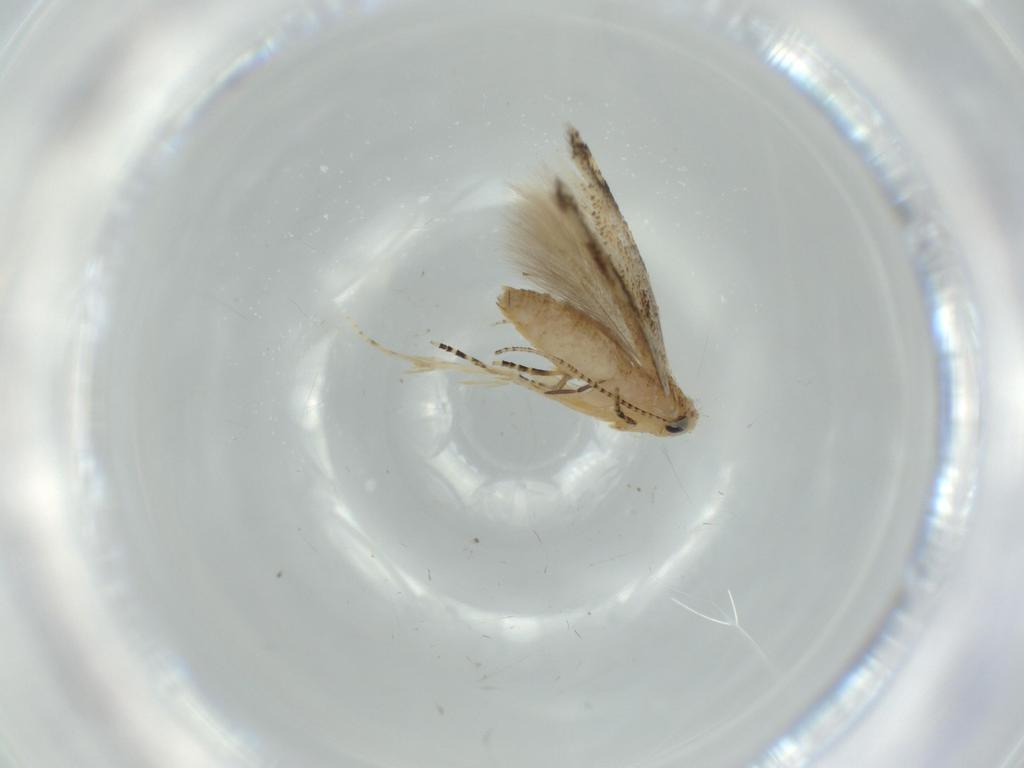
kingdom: Animalia
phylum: Arthropoda
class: Insecta
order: Lepidoptera
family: Bucculatricidae
